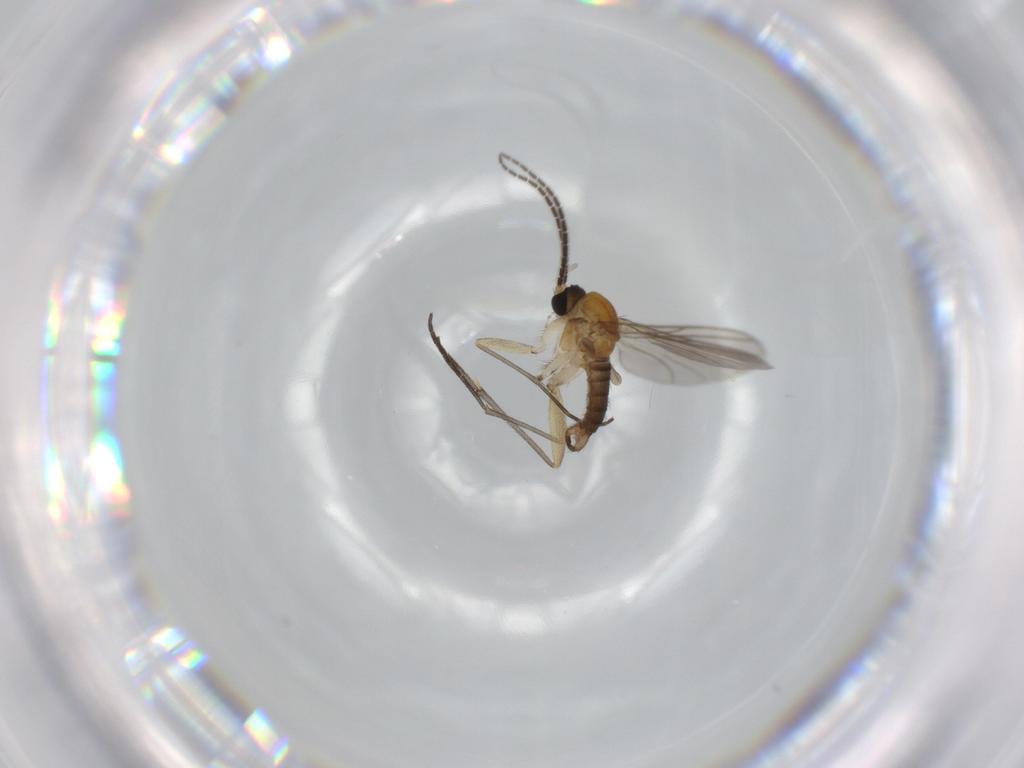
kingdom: Animalia
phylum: Arthropoda
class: Insecta
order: Diptera
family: Sciaridae
